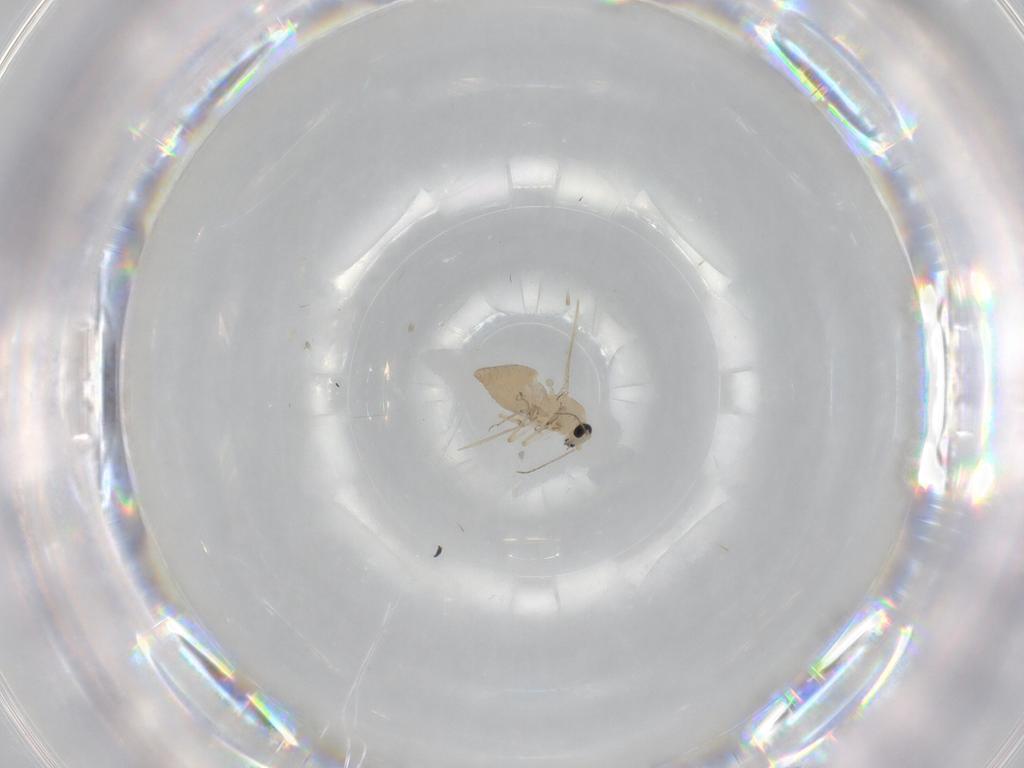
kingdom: Animalia
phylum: Arthropoda
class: Insecta
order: Diptera
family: Ceratopogonidae
